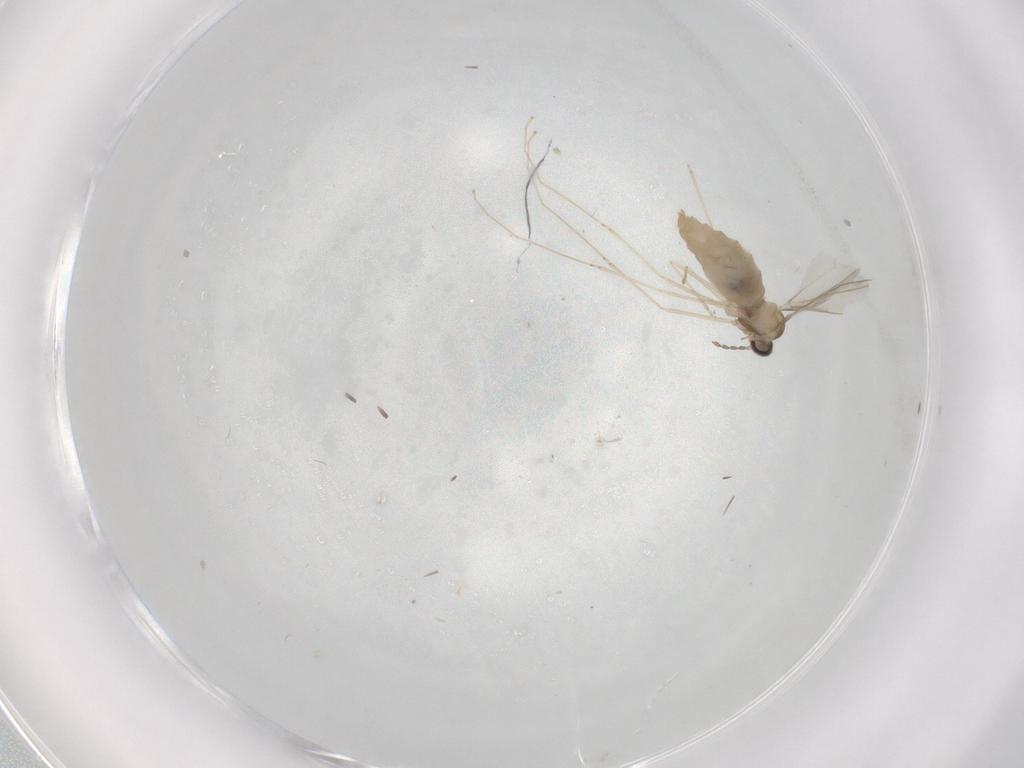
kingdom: Animalia
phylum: Arthropoda
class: Insecta
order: Diptera
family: Cecidomyiidae
